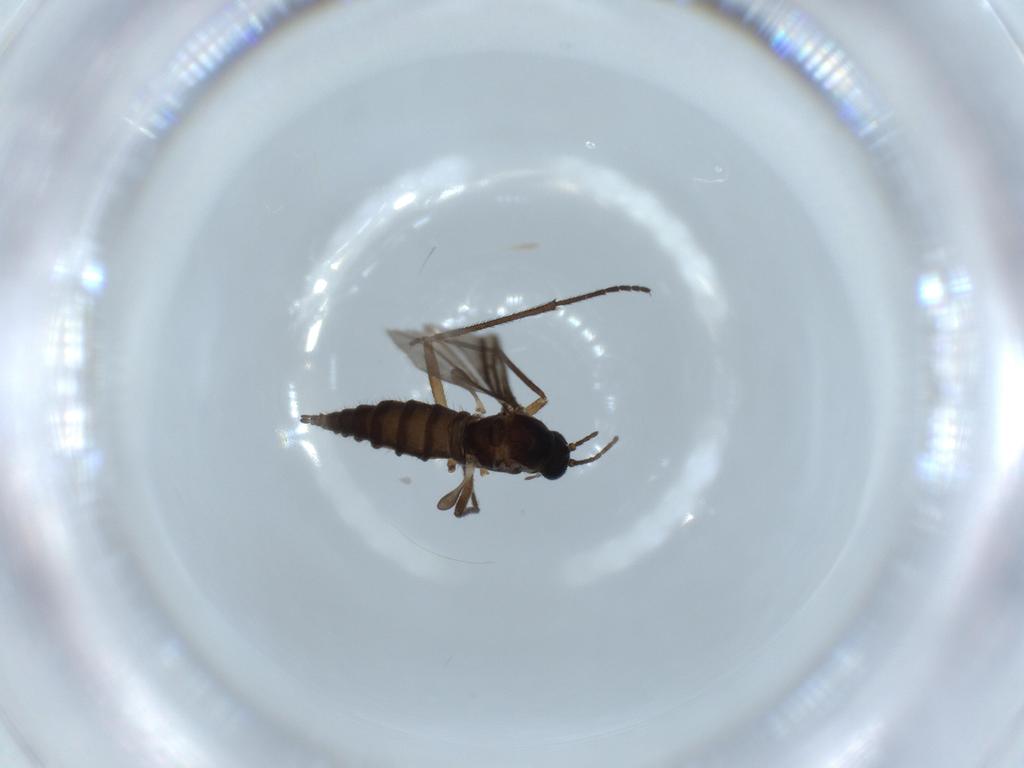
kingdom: Animalia
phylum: Arthropoda
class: Insecta
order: Diptera
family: Sciaridae
